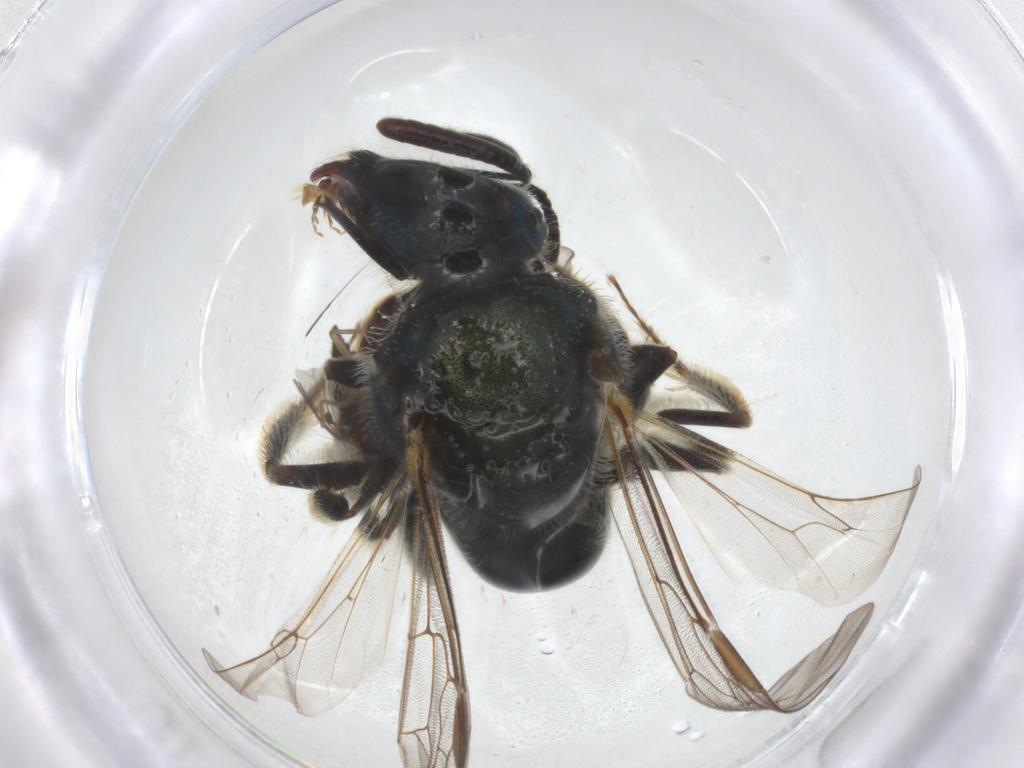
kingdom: Animalia
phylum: Arthropoda
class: Insecta
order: Diptera
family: Sciaridae
